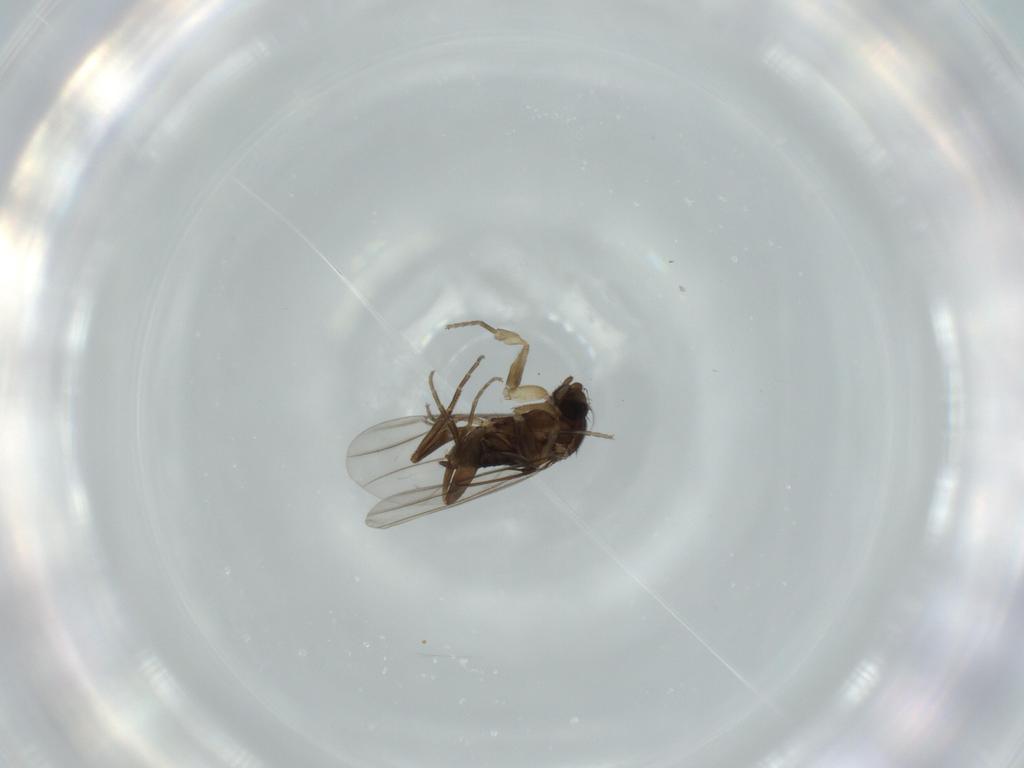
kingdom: Animalia
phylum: Arthropoda
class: Insecta
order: Diptera
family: Phoridae
